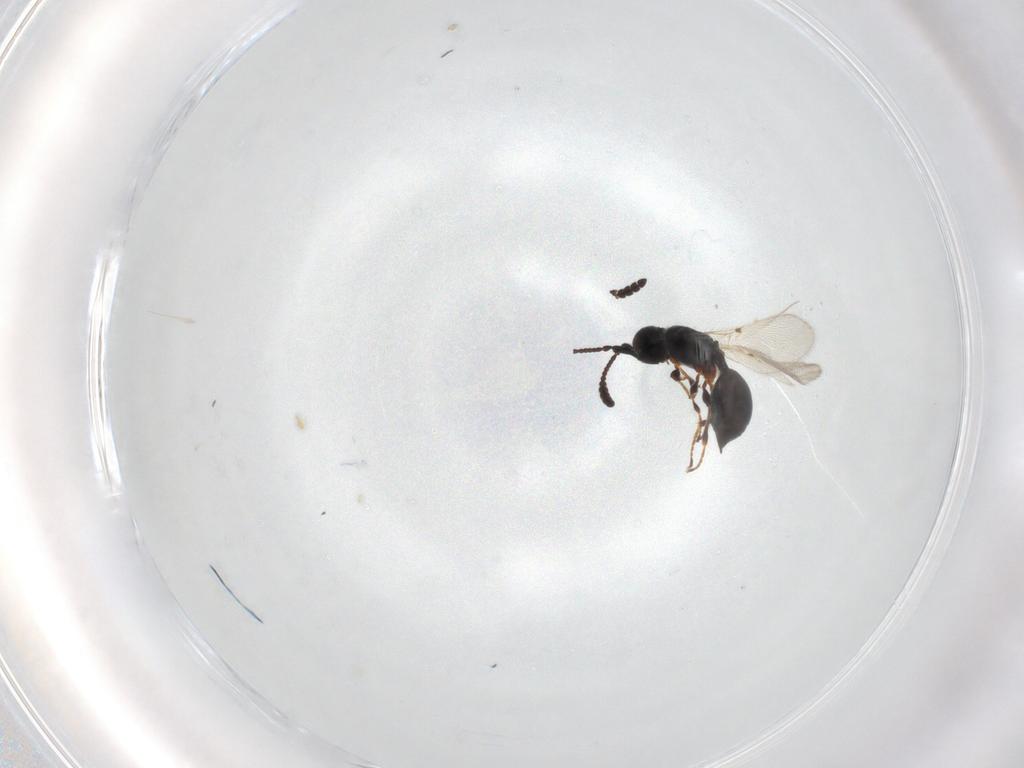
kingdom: Animalia
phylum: Arthropoda
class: Insecta
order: Hymenoptera
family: Diapriidae
